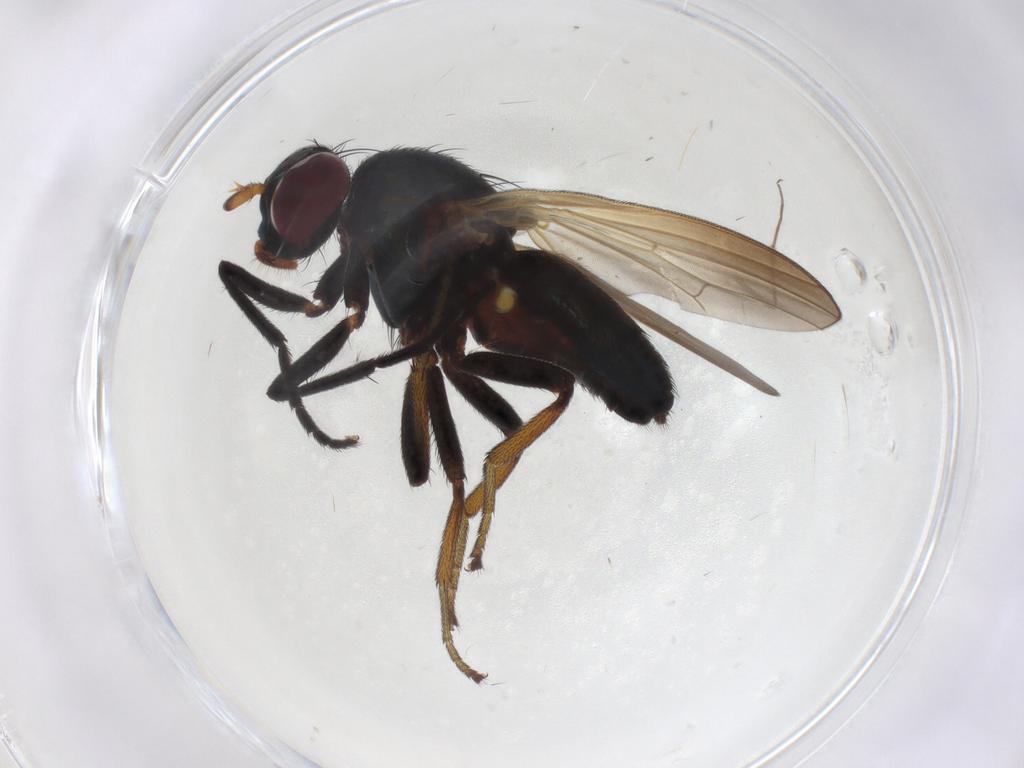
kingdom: Animalia
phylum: Arthropoda
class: Insecta
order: Diptera
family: Lauxaniidae
